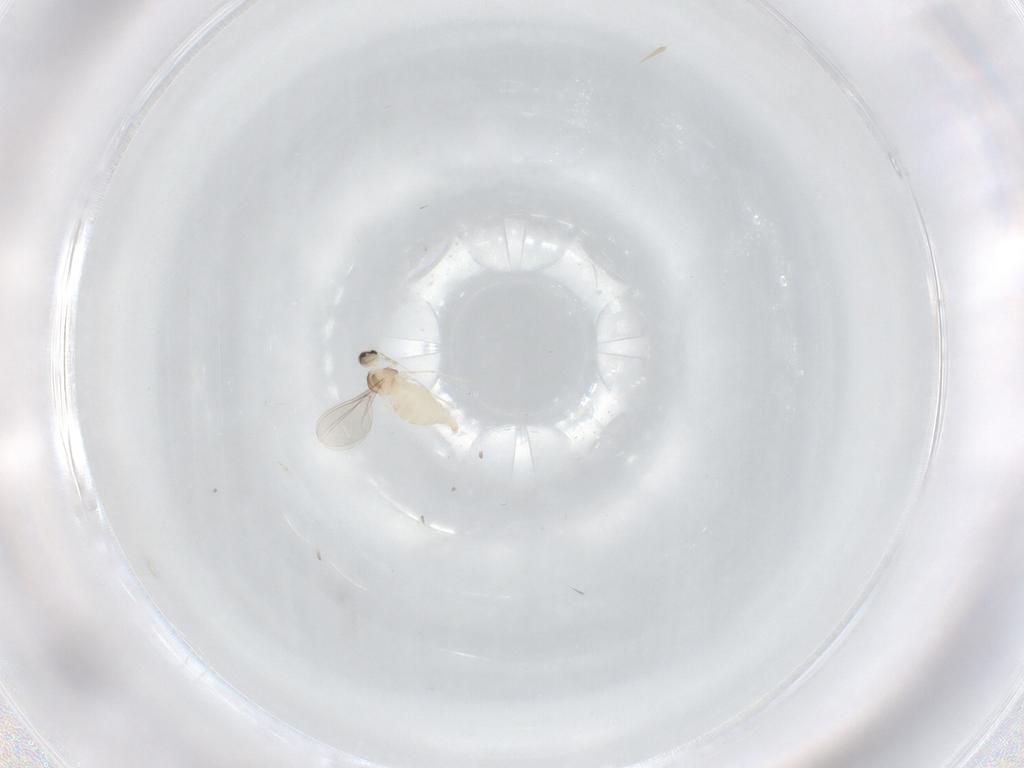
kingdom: Animalia
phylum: Arthropoda
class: Insecta
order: Diptera
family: Cecidomyiidae
